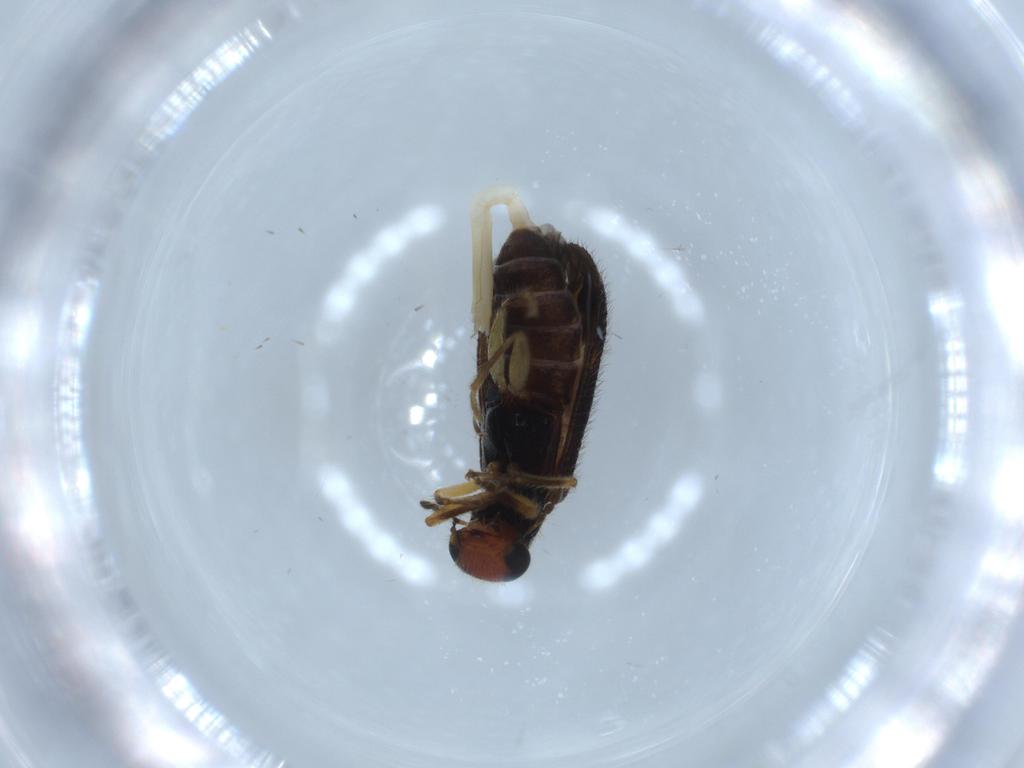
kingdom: Animalia
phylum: Arthropoda
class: Insecta
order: Coleoptera
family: Cleridae
